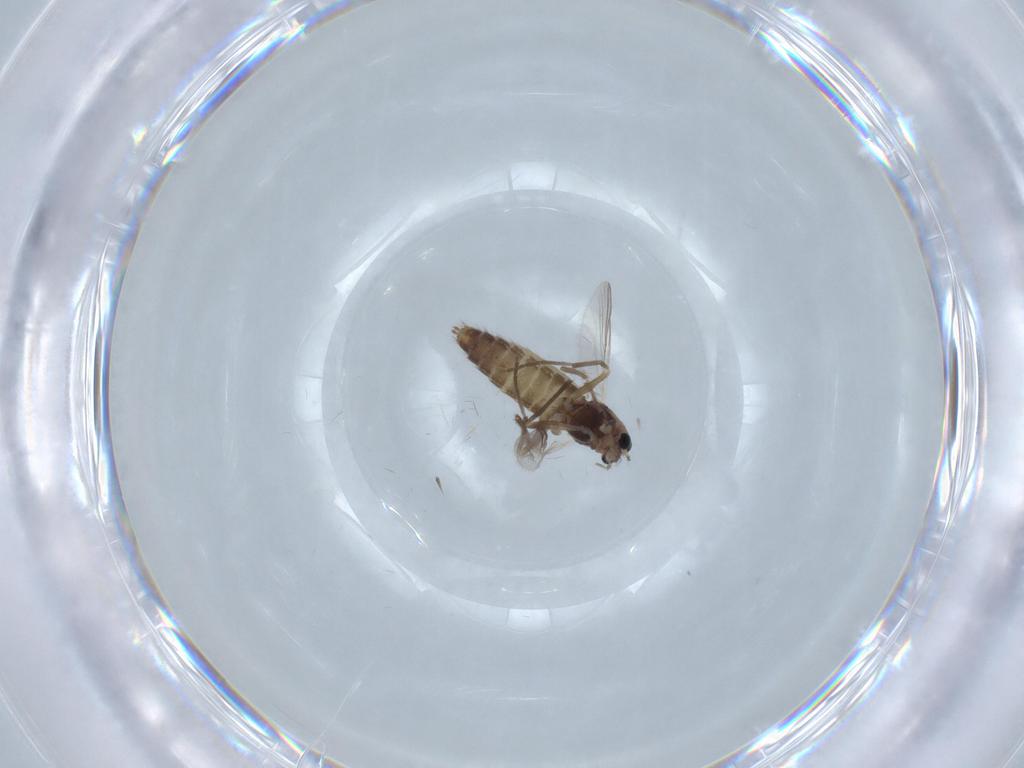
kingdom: Animalia
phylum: Arthropoda
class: Insecta
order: Diptera
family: Chironomidae
